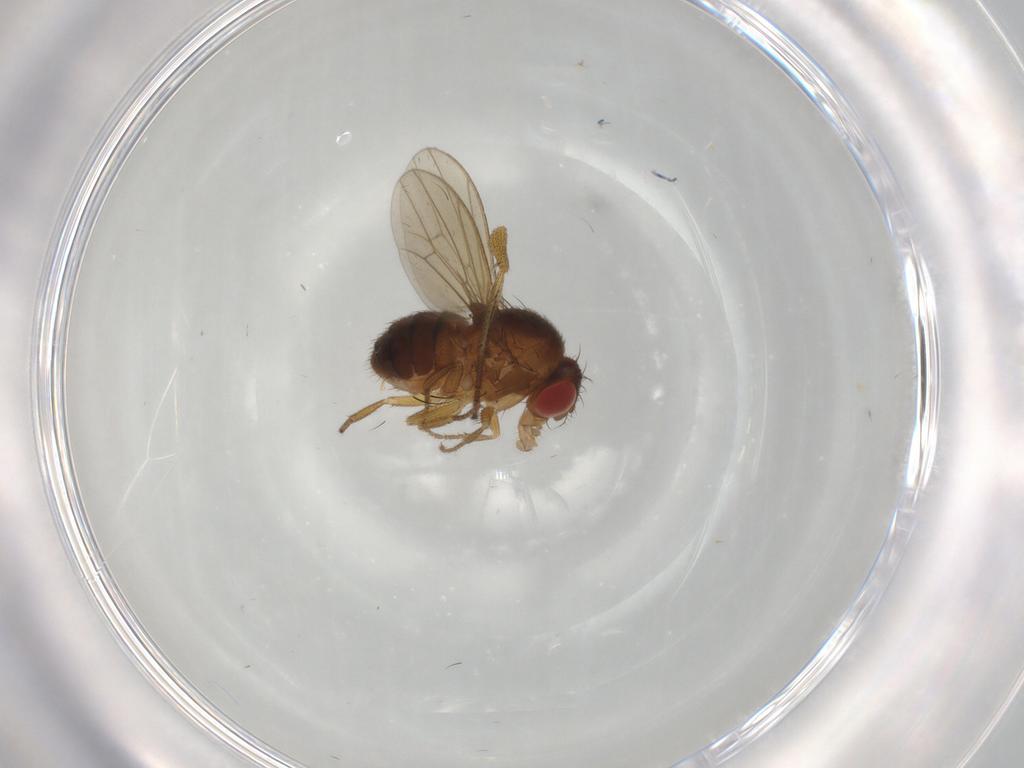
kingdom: Animalia
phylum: Arthropoda
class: Insecta
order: Diptera
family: Drosophilidae
